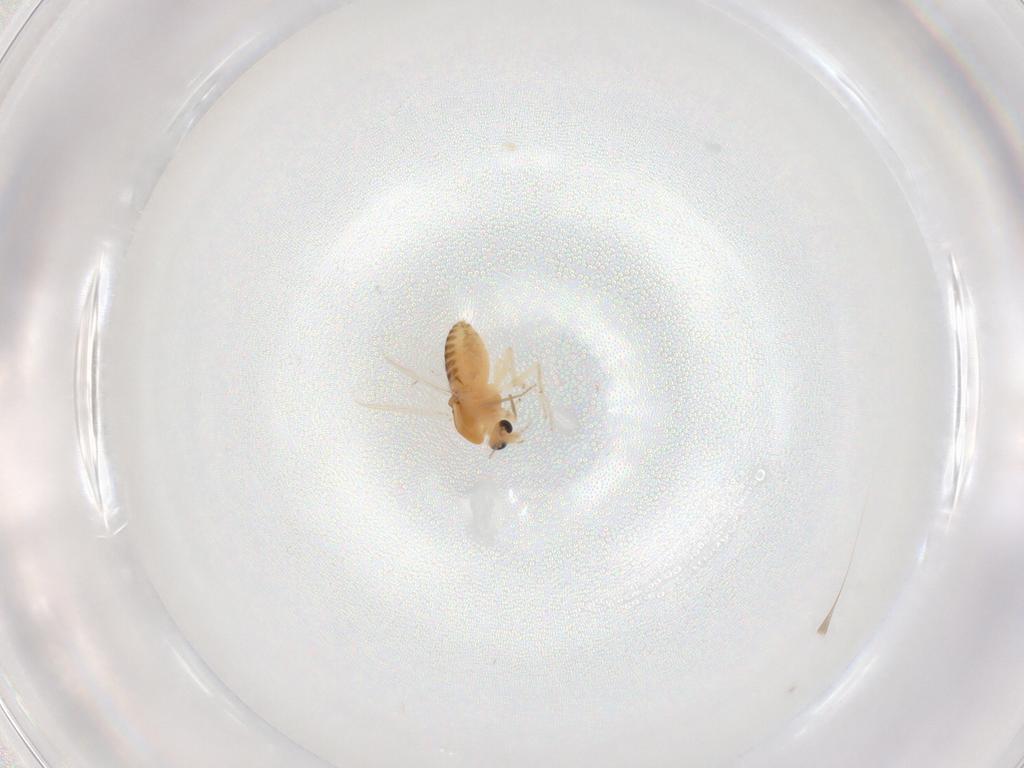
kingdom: Animalia
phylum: Arthropoda
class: Insecta
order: Diptera
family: Chironomidae
